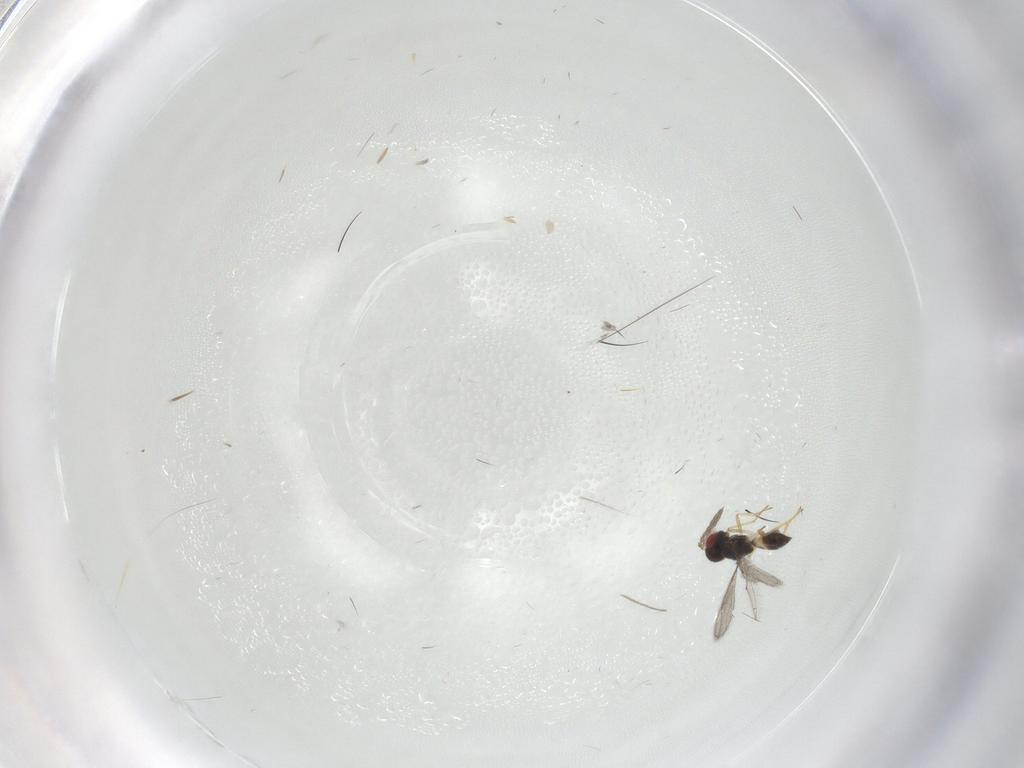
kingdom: Animalia
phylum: Arthropoda
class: Insecta
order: Hymenoptera
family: Eulophidae
